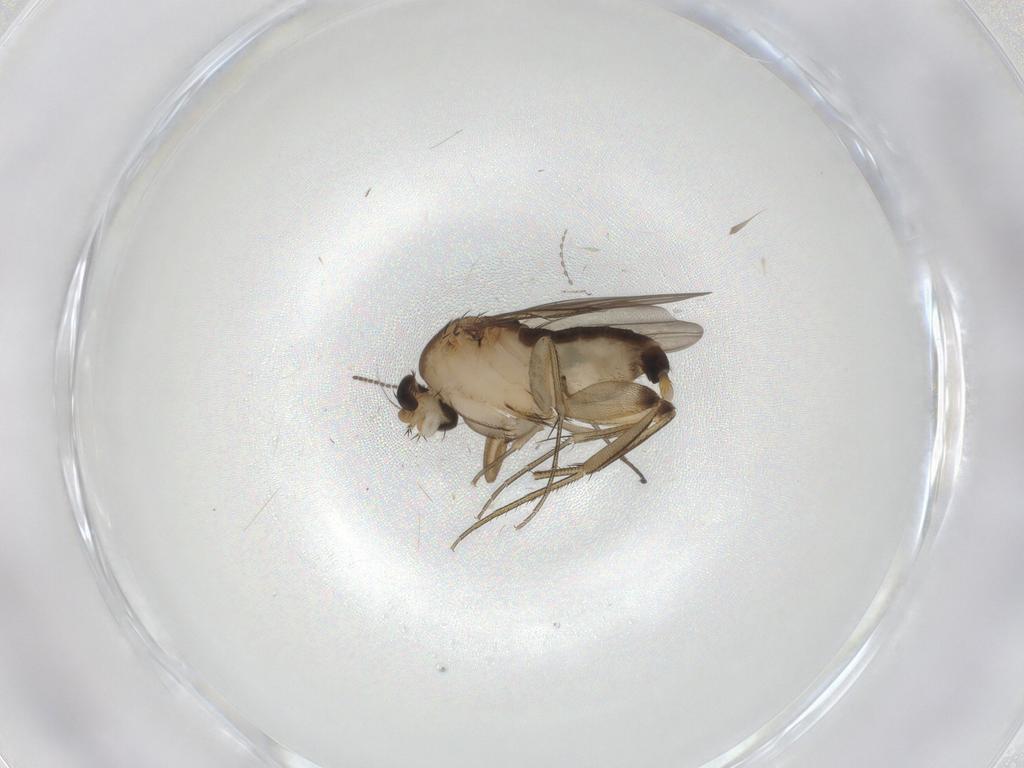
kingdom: Animalia
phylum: Arthropoda
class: Insecta
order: Diptera
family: Phoridae
